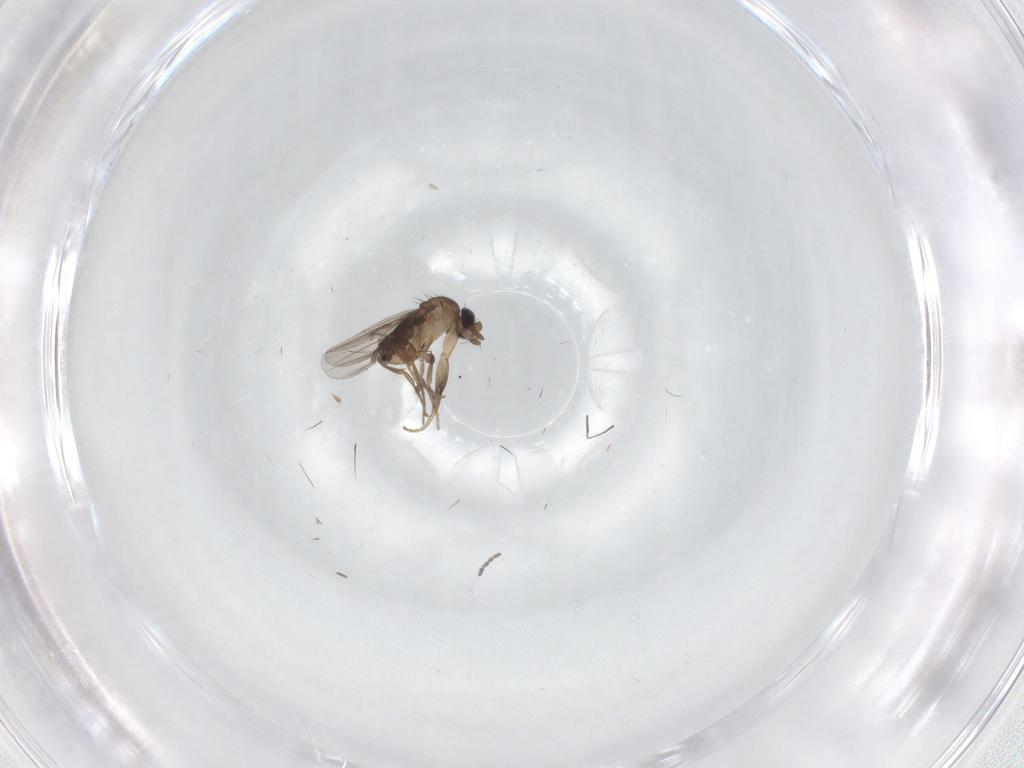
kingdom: Animalia
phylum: Arthropoda
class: Insecta
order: Diptera
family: Phoridae
